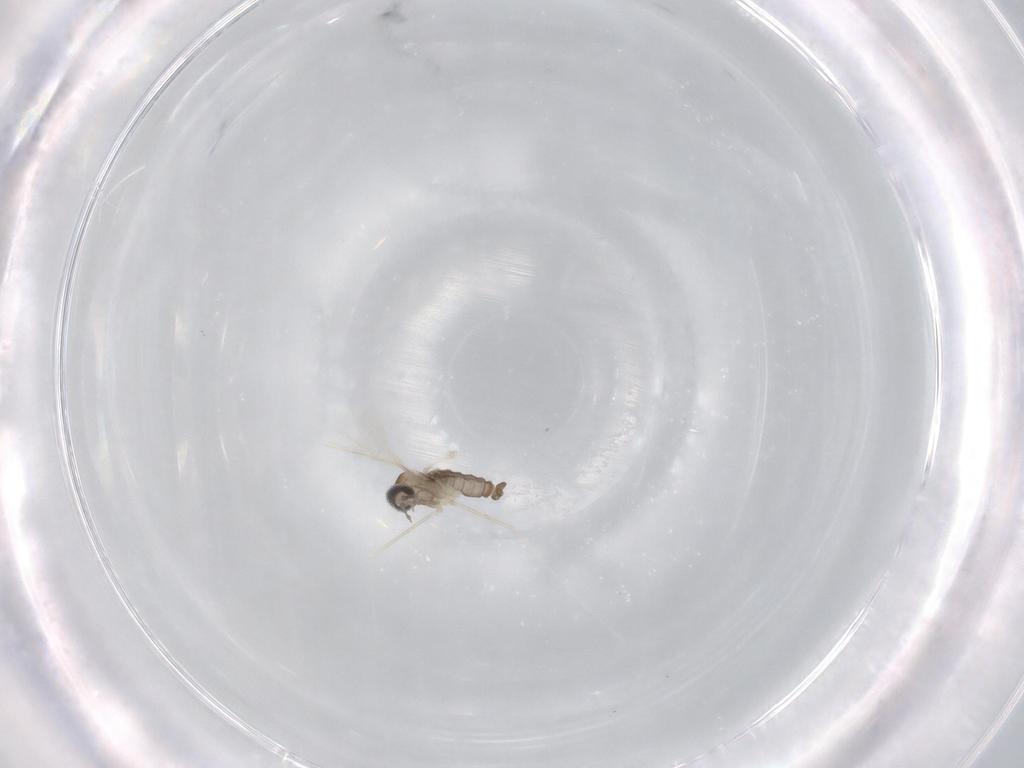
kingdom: Animalia
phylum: Arthropoda
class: Insecta
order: Diptera
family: Cecidomyiidae
